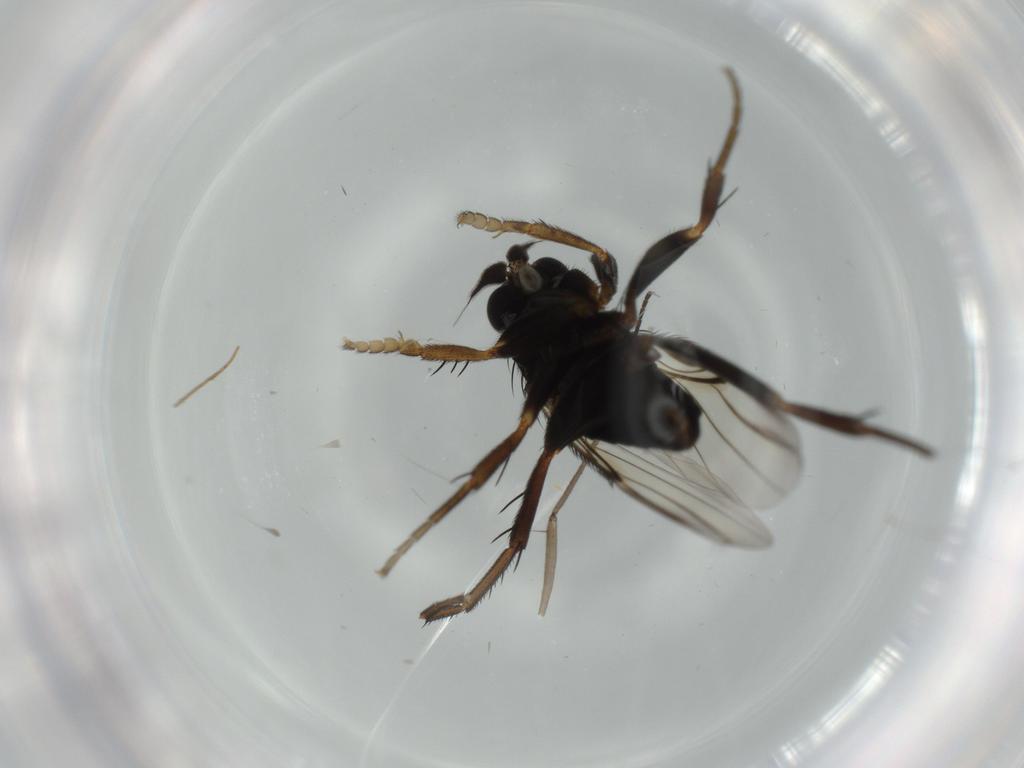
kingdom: Animalia
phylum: Arthropoda
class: Insecta
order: Diptera
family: Phoridae
